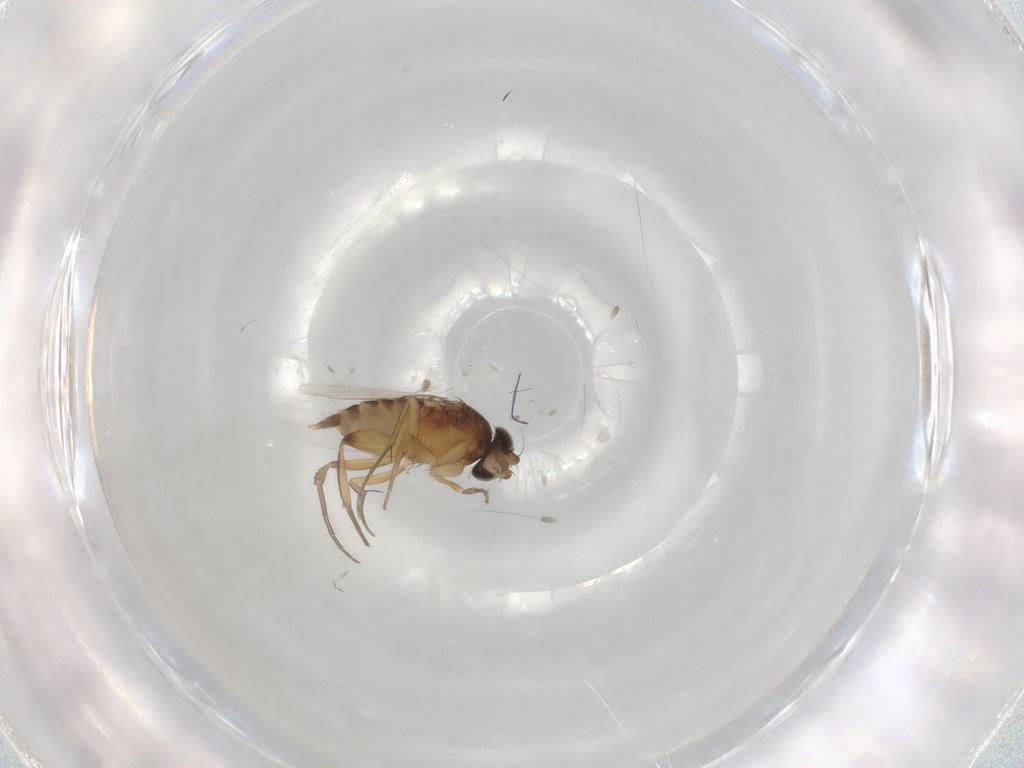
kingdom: Animalia
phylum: Arthropoda
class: Insecta
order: Diptera
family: Phoridae
